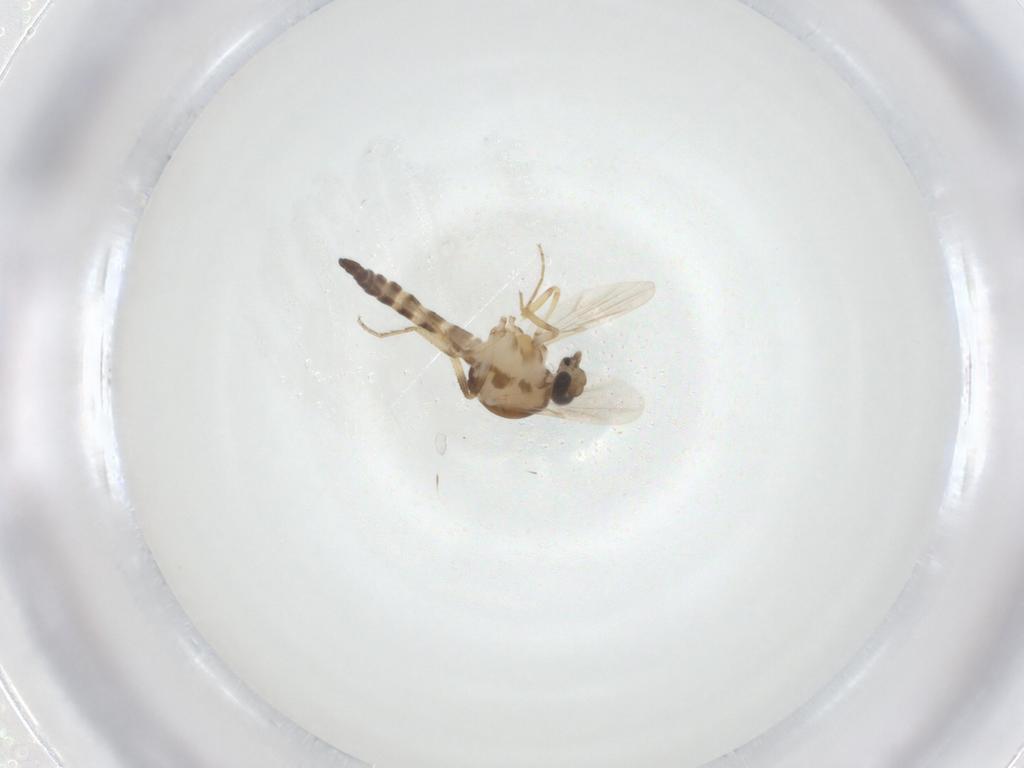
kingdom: Animalia
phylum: Arthropoda
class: Insecta
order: Diptera
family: Ceratopogonidae
